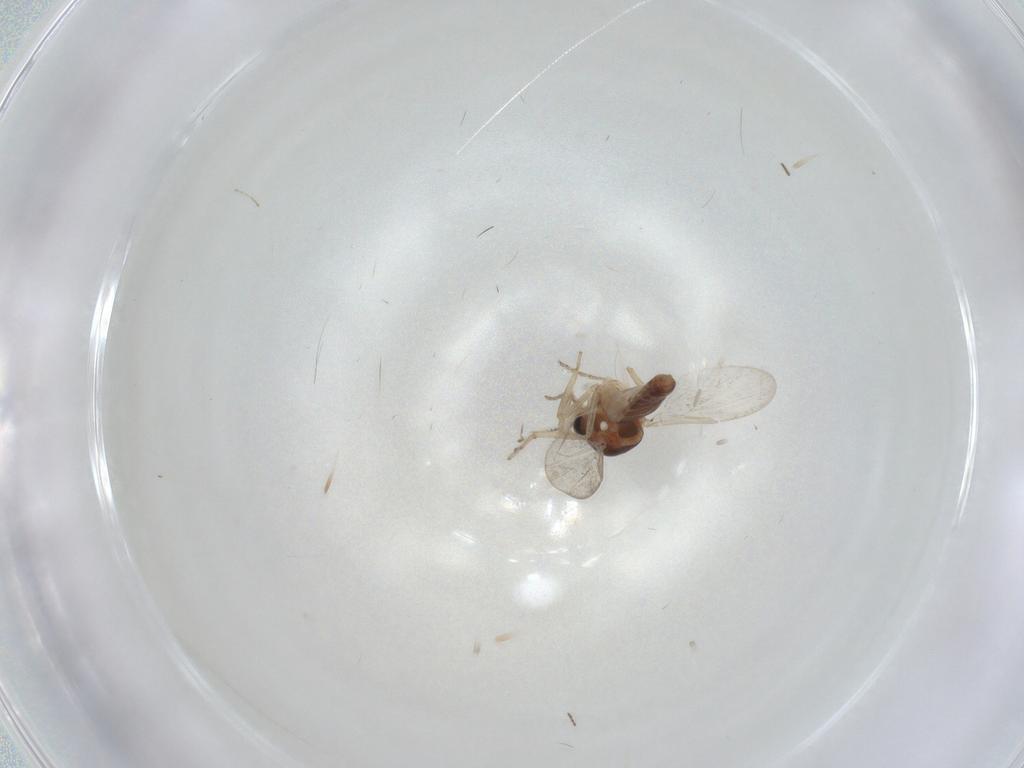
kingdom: Animalia
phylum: Arthropoda
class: Insecta
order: Diptera
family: Ceratopogonidae
